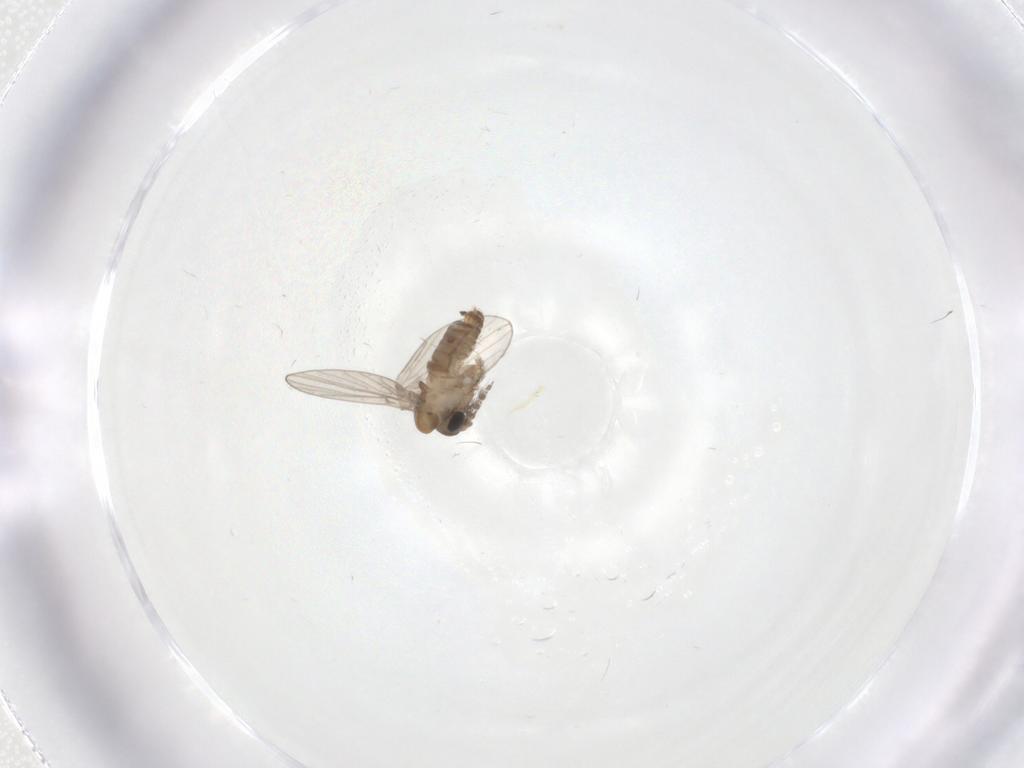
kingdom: Animalia
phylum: Arthropoda
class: Insecta
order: Diptera
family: Psychodidae
